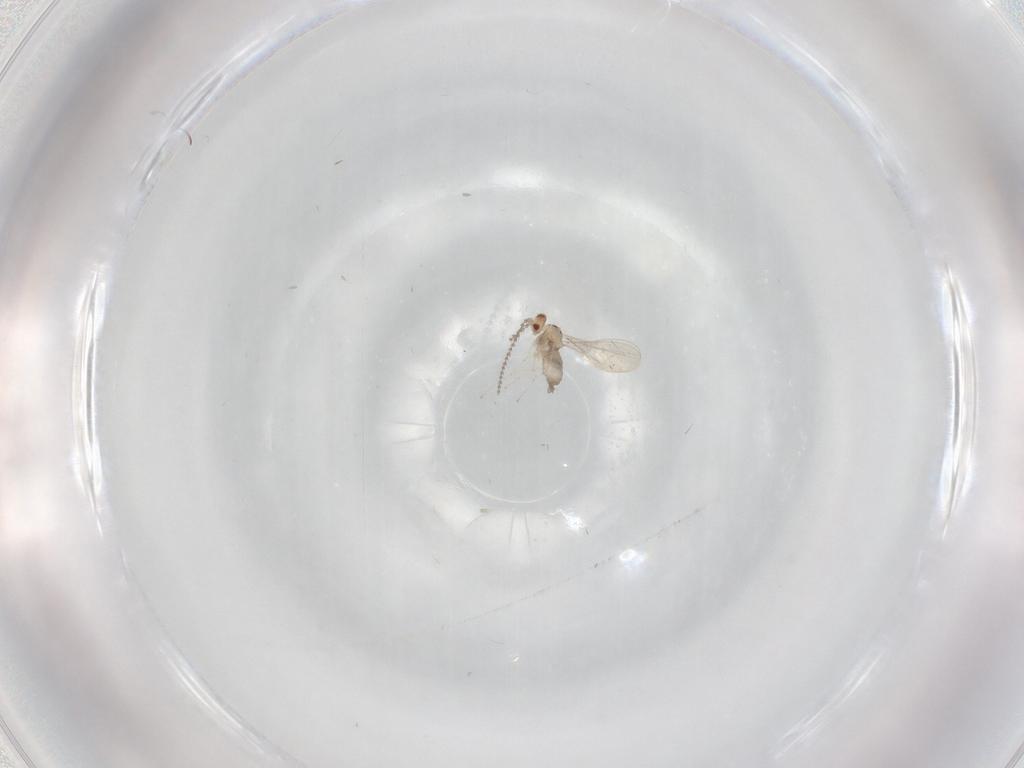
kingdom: Animalia
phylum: Arthropoda
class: Insecta
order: Diptera
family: Cecidomyiidae
